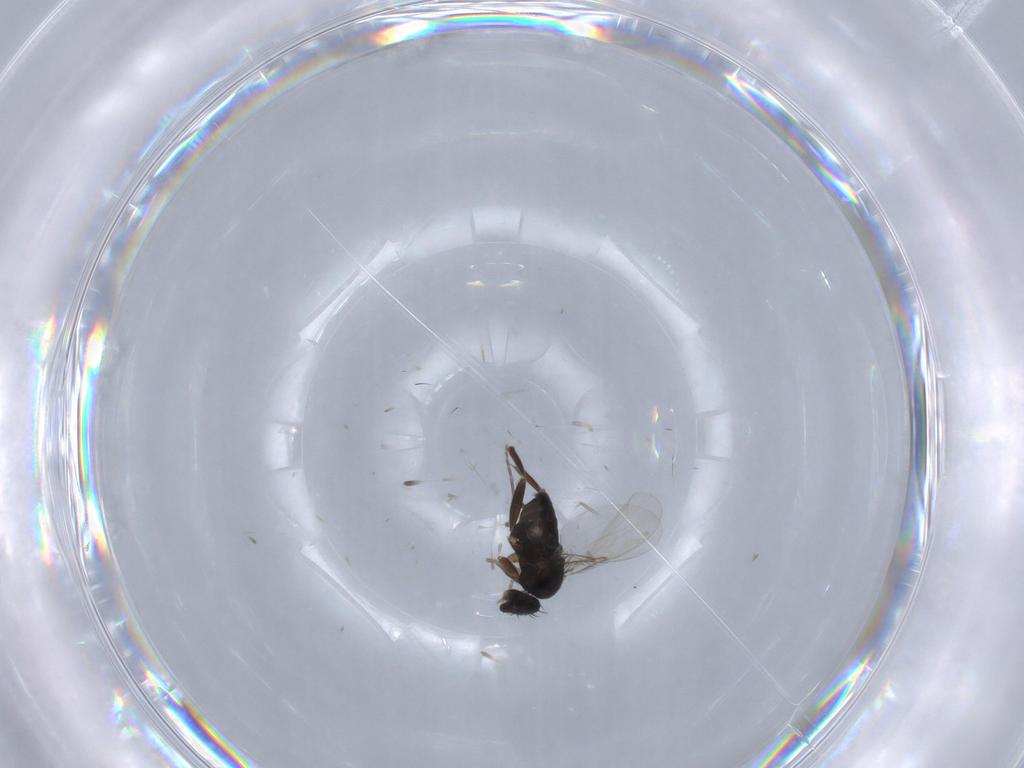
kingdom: Animalia
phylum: Arthropoda
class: Insecta
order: Diptera
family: Phoridae
